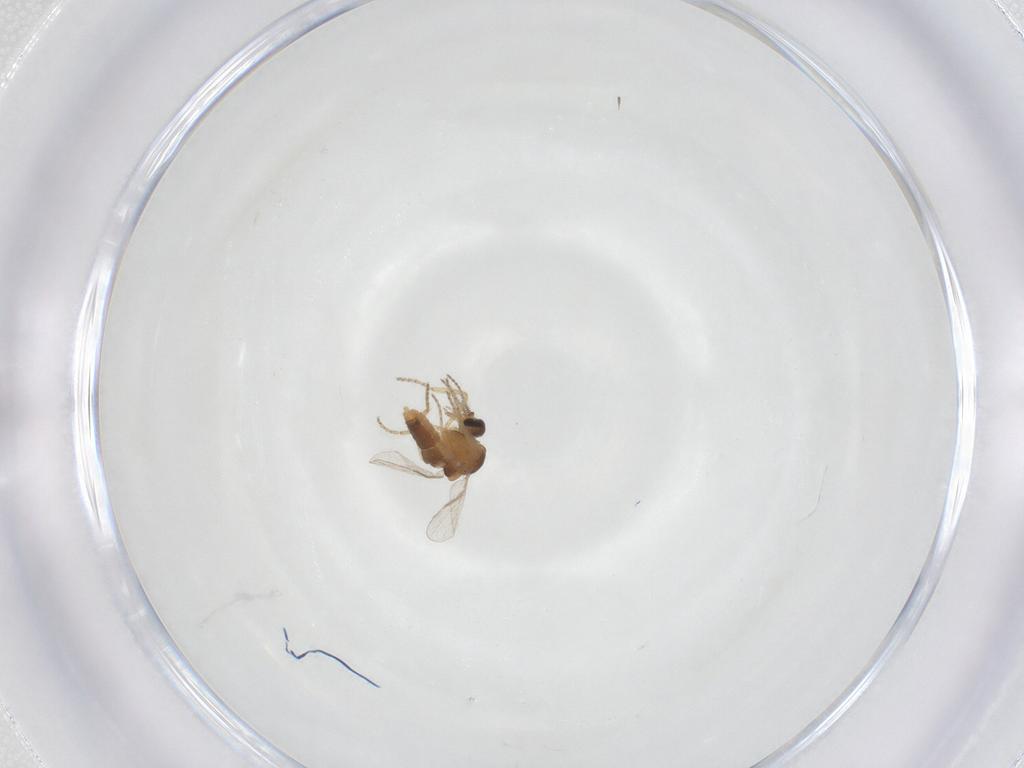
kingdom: Animalia
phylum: Arthropoda
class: Insecta
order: Diptera
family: Ceratopogonidae
